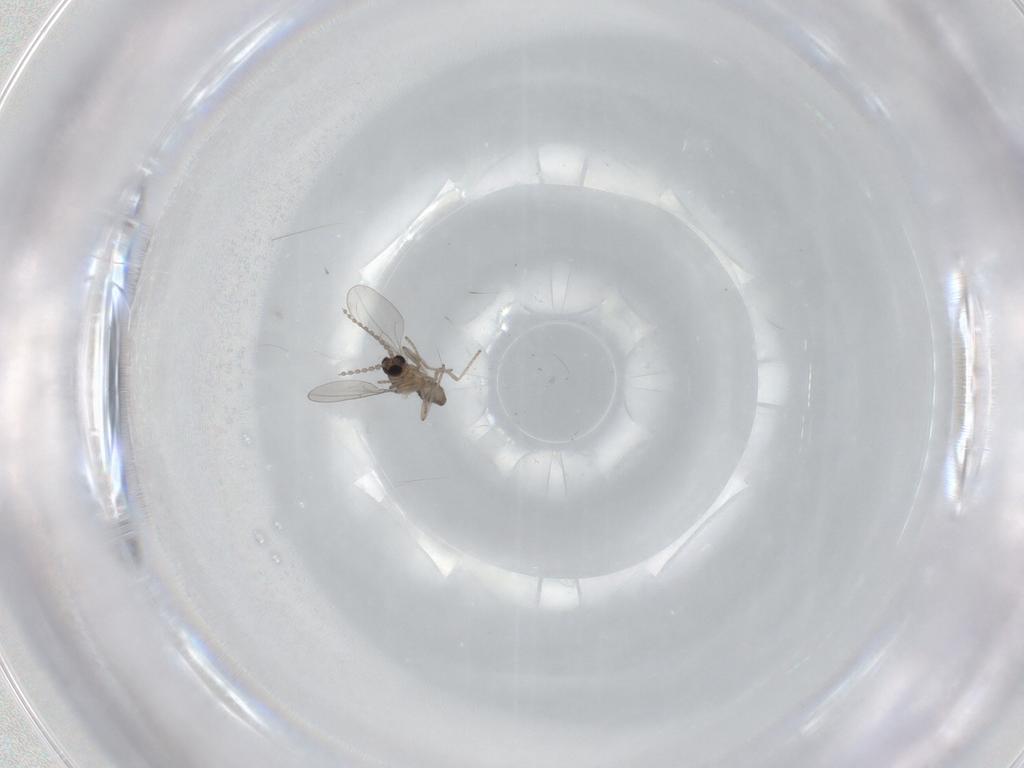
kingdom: Animalia
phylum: Arthropoda
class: Insecta
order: Diptera
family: Cecidomyiidae
